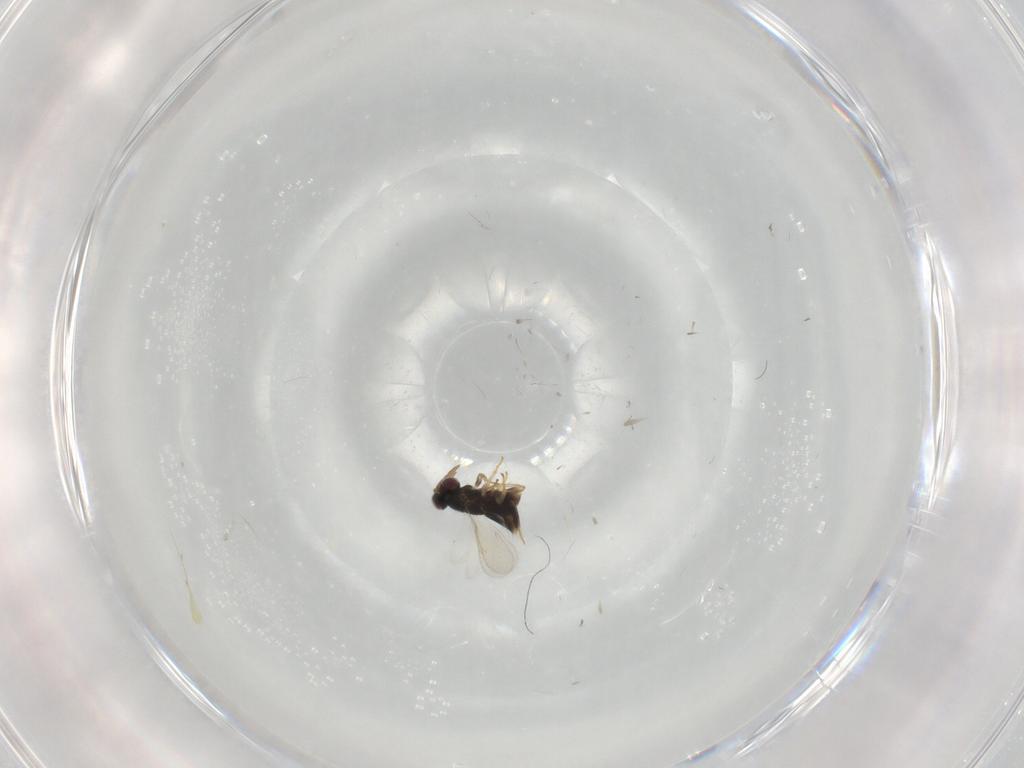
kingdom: Animalia
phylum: Arthropoda
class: Insecta
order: Hymenoptera
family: Aphelinidae
